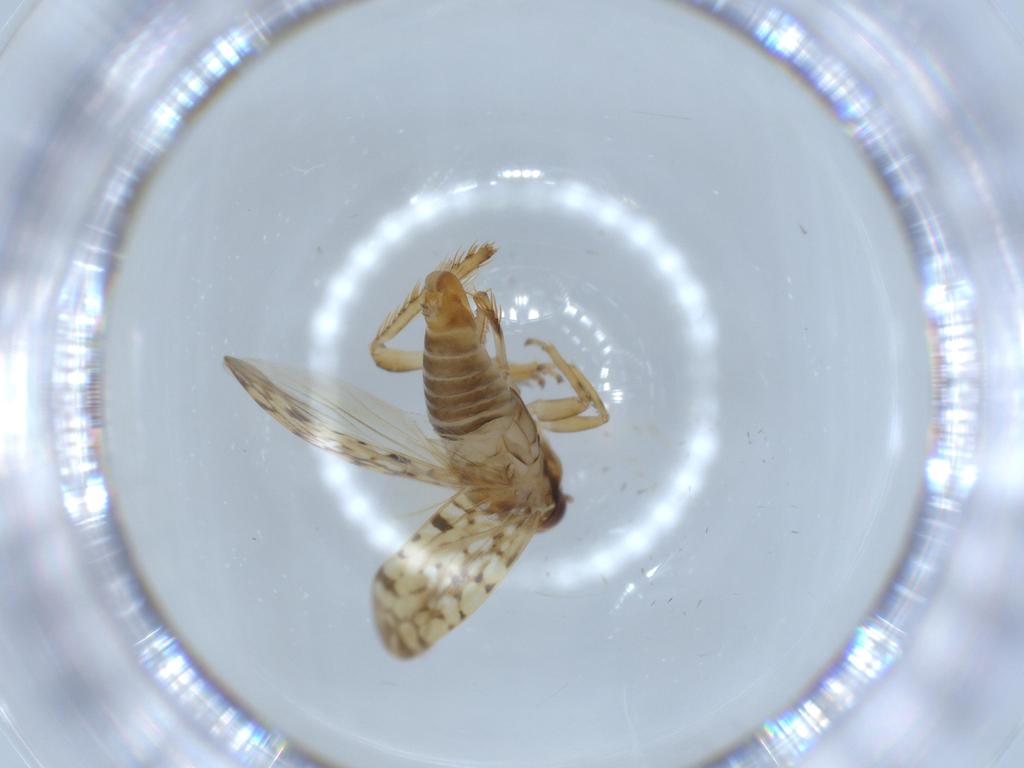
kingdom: Animalia
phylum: Arthropoda
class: Insecta
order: Hemiptera
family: Cicadellidae
